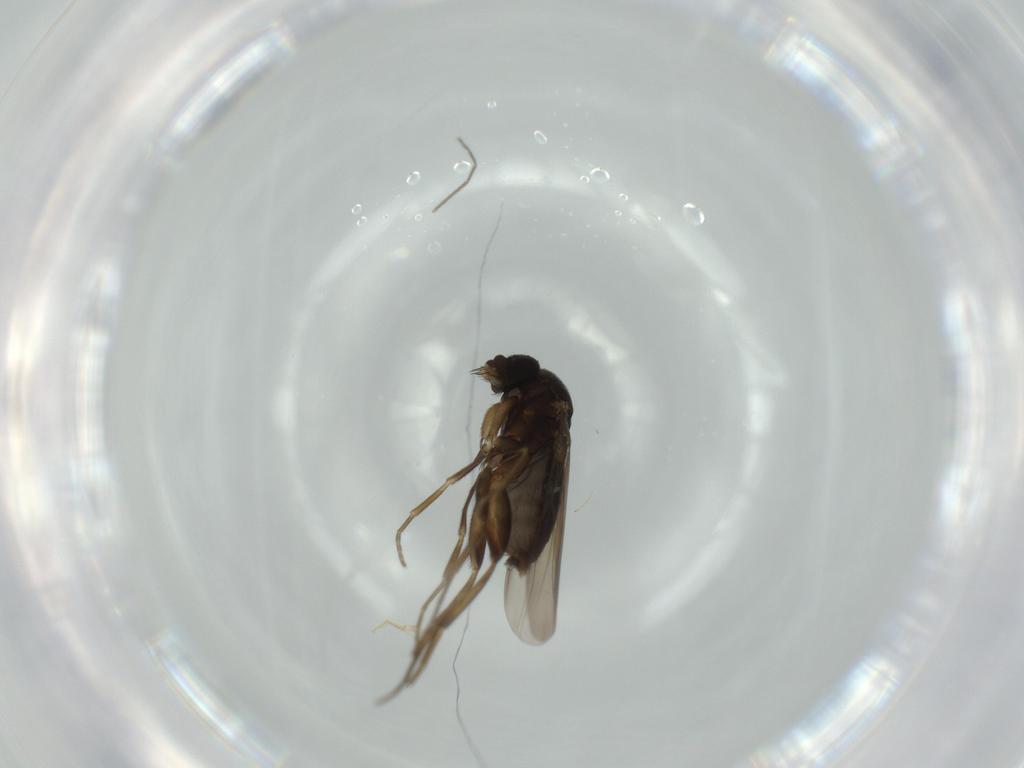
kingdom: Animalia
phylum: Arthropoda
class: Insecta
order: Diptera
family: Phoridae
